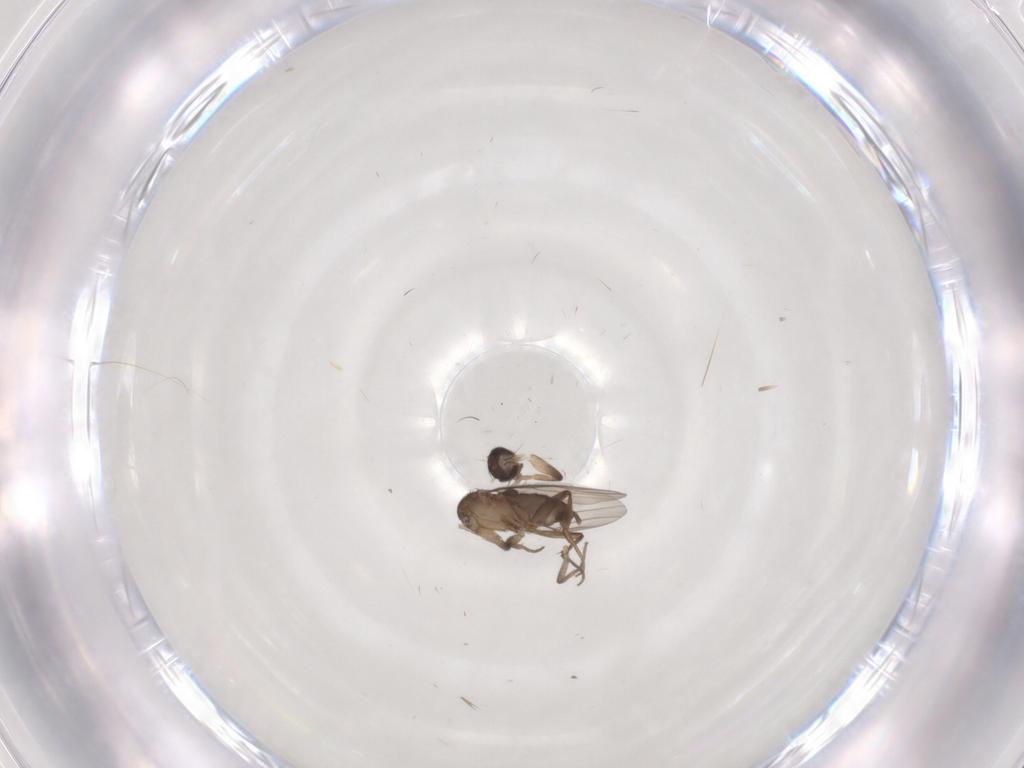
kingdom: Animalia
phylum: Arthropoda
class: Insecta
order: Diptera
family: Phoridae
